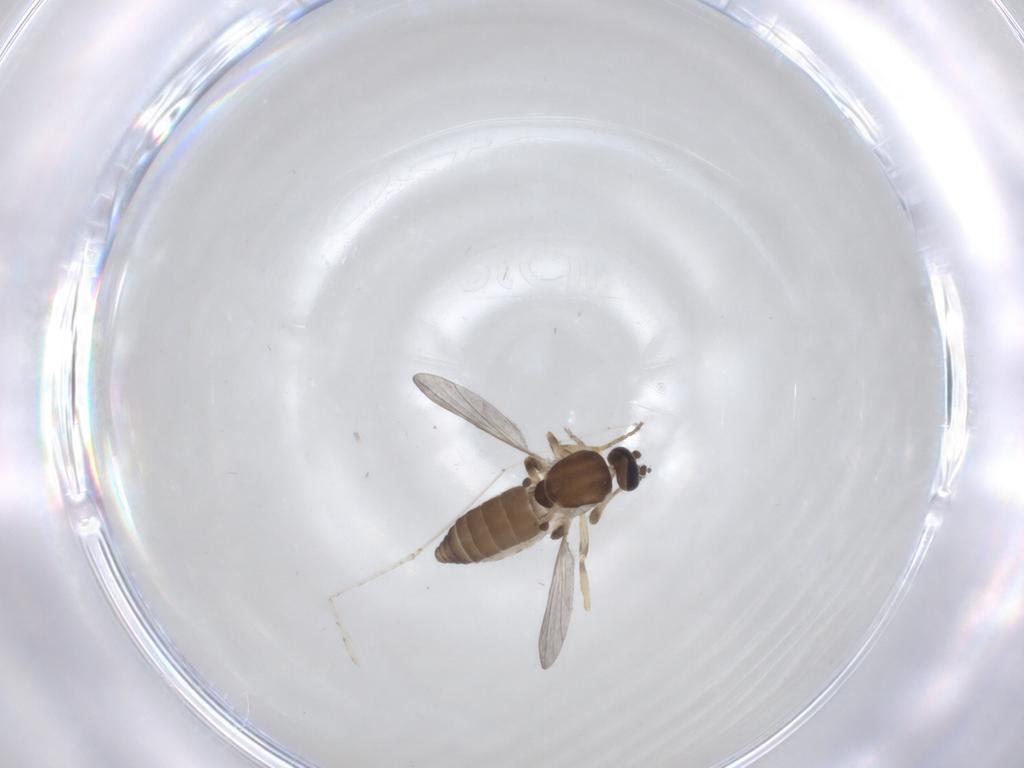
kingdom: Animalia
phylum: Arthropoda
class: Insecta
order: Diptera
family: Ceratopogonidae
